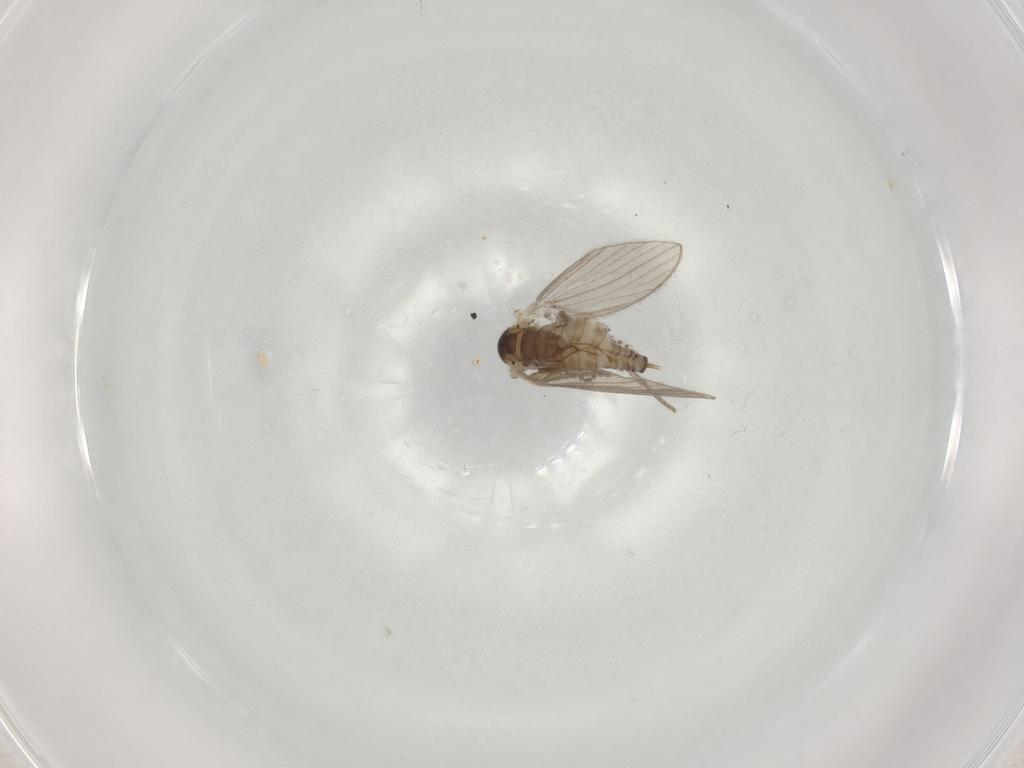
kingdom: Animalia
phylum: Arthropoda
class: Insecta
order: Diptera
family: Psychodidae
